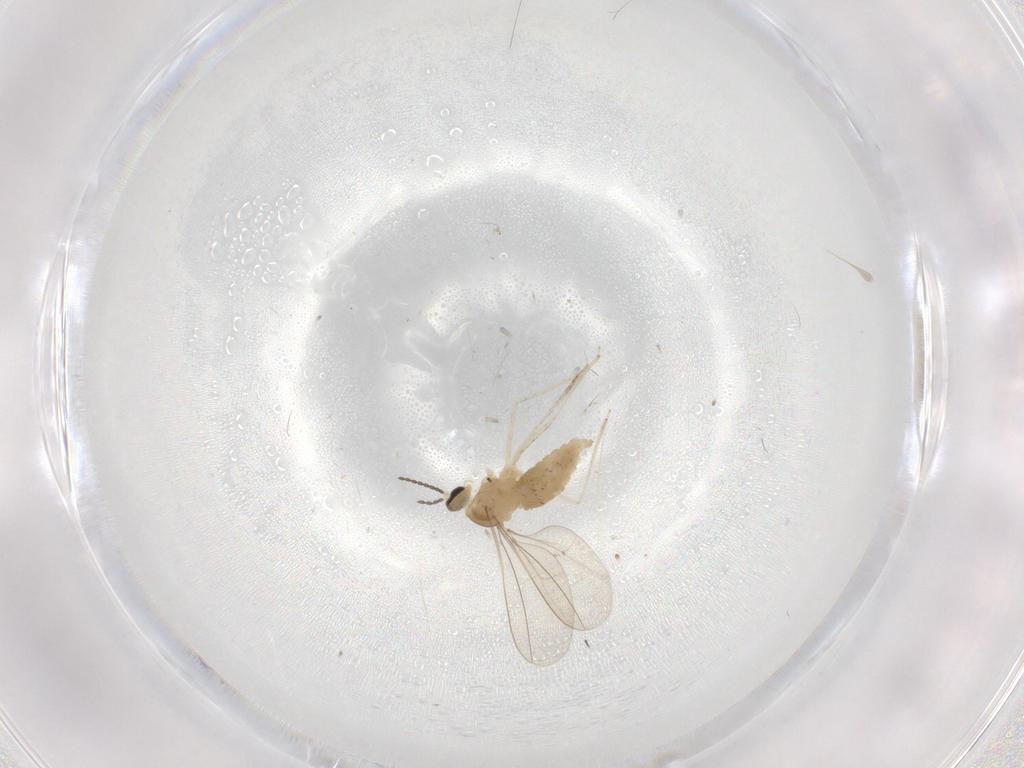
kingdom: Animalia
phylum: Arthropoda
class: Insecta
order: Diptera
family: Cecidomyiidae
